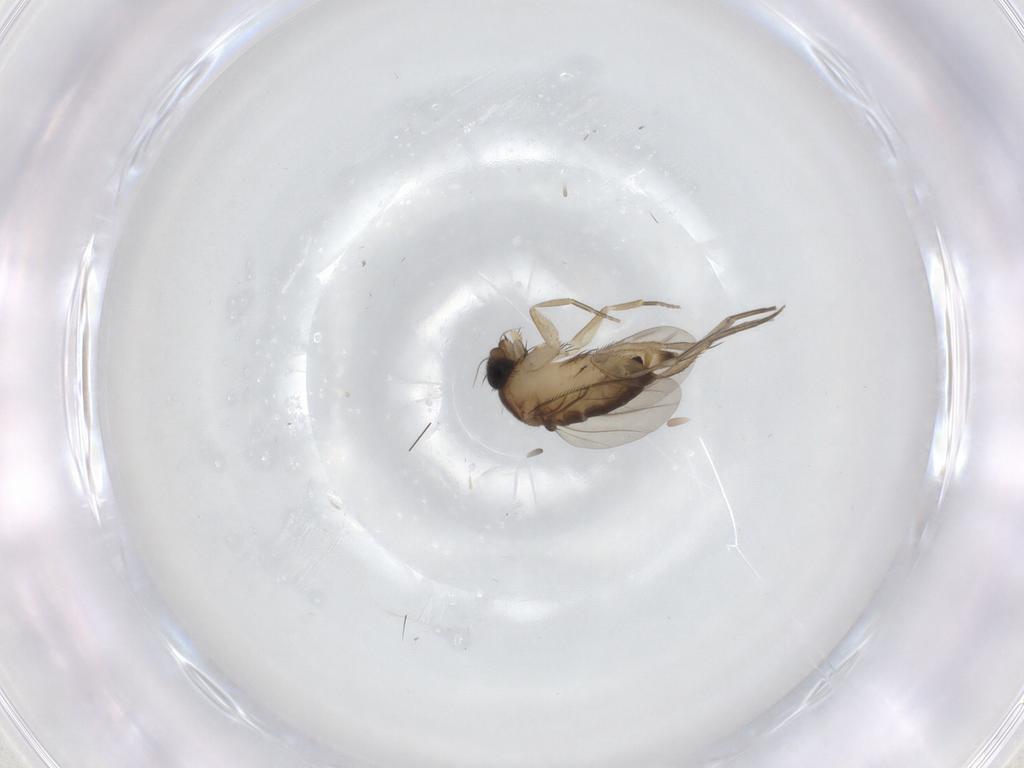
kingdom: Animalia
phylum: Arthropoda
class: Insecta
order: Diptera
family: Phoridae
